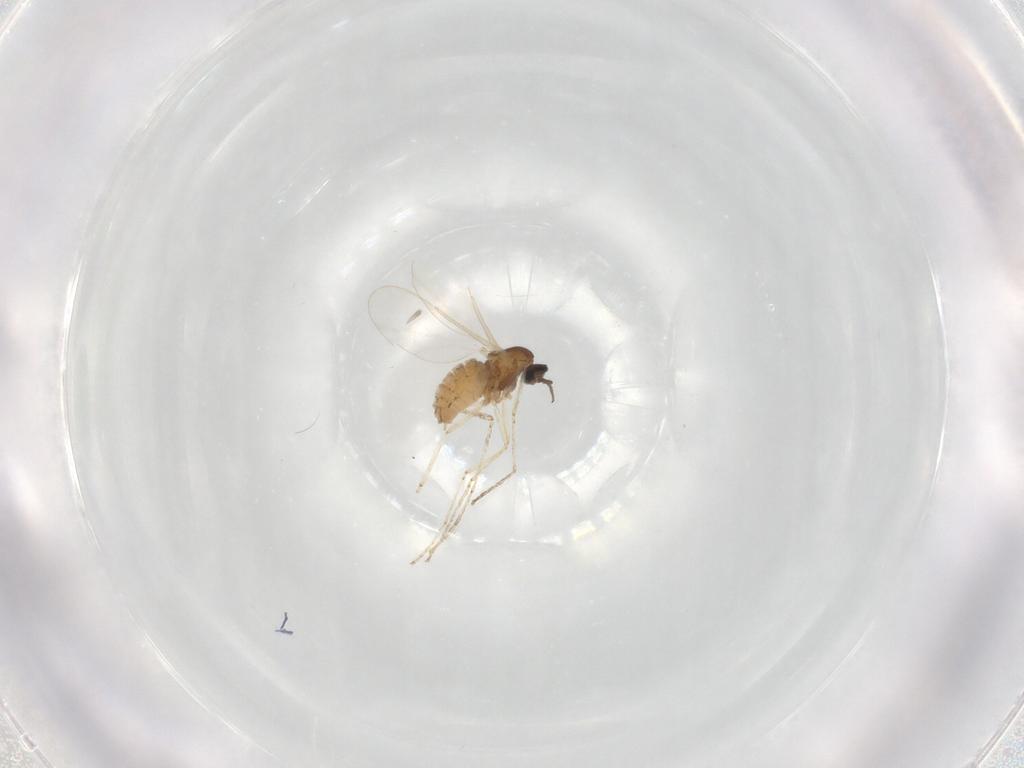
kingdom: Animalia
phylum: Arthropoda
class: Insecta
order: Diptera
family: Cecidomyiidae
